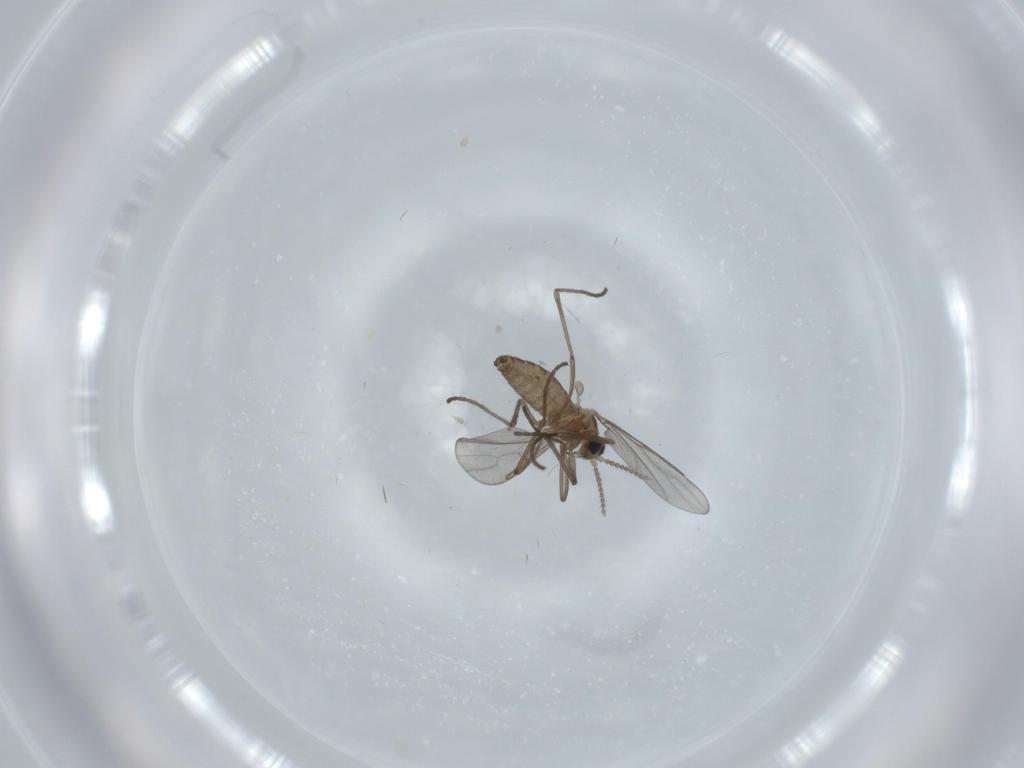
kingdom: Animalia
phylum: Arthropoda
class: Insecta
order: Diptera
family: Cecidomyiidae
